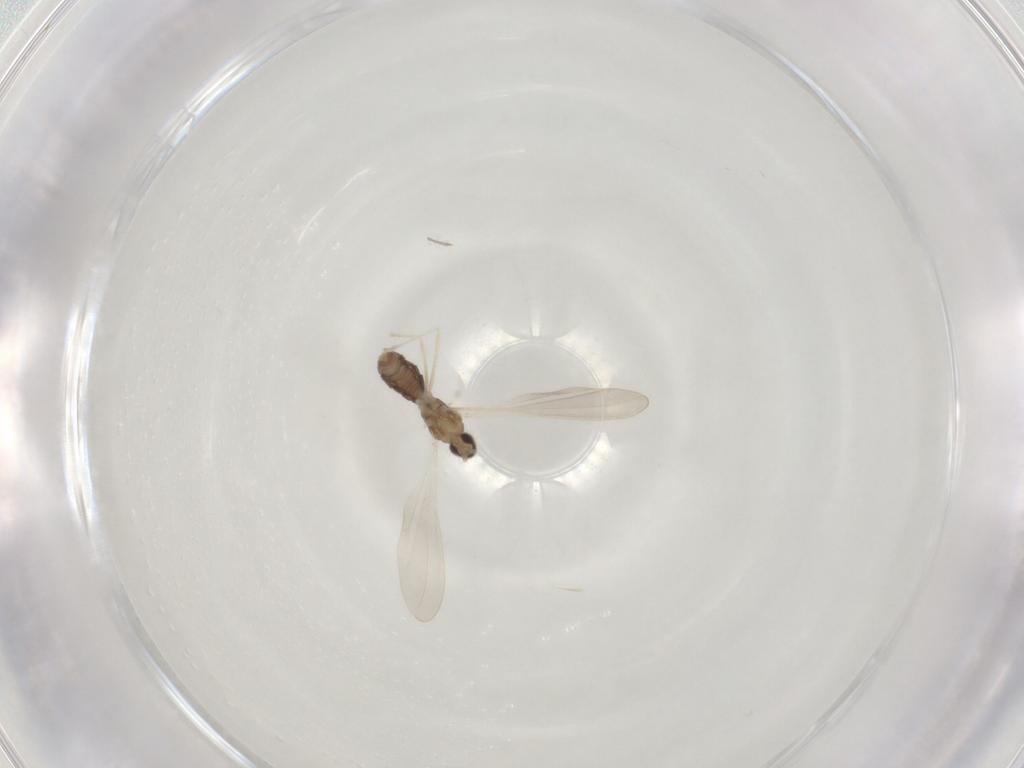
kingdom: Animalia
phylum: Arthropoda
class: Insecta
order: Diptera
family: Cecidomyiidae
